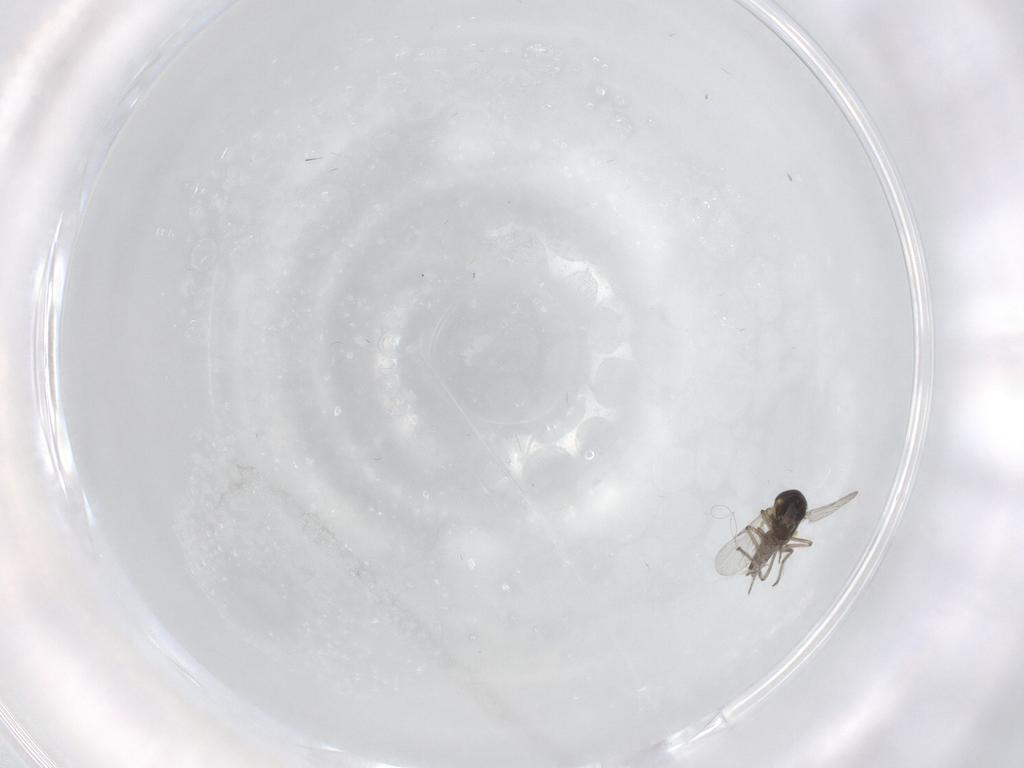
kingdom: Animalia
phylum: Arthropoda
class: Insecta
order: Diptera
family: Ceratopogonidae
